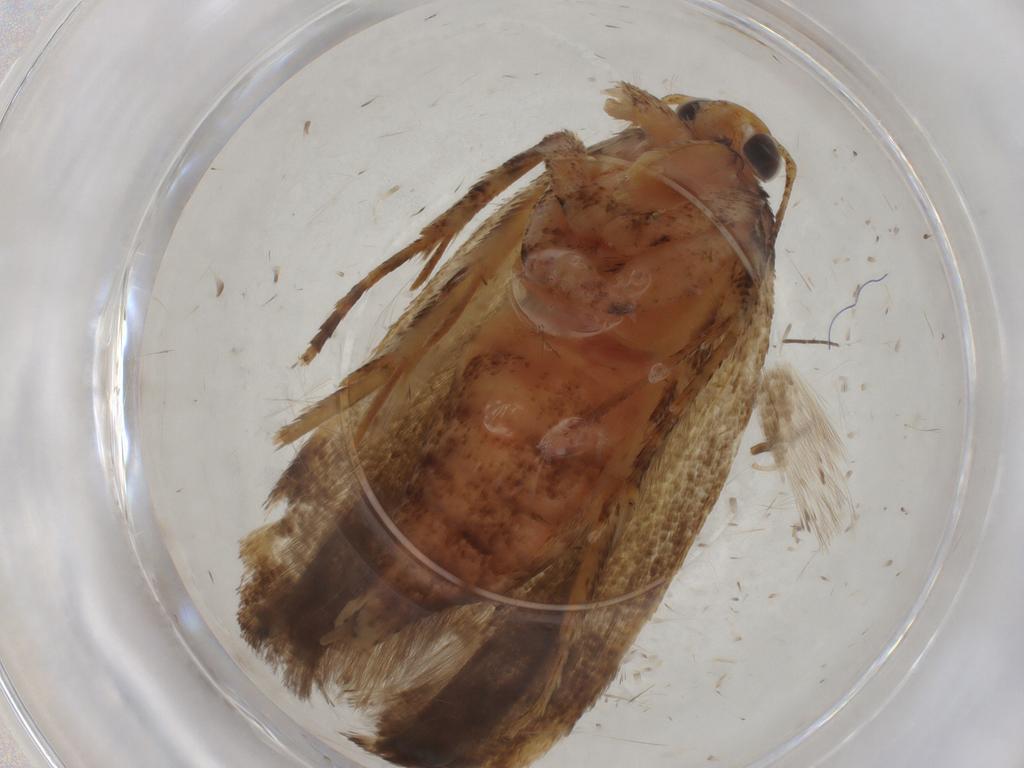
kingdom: Animalia
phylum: Arthropoda
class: Insecta
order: Lepidoptera
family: Gelechiidae
